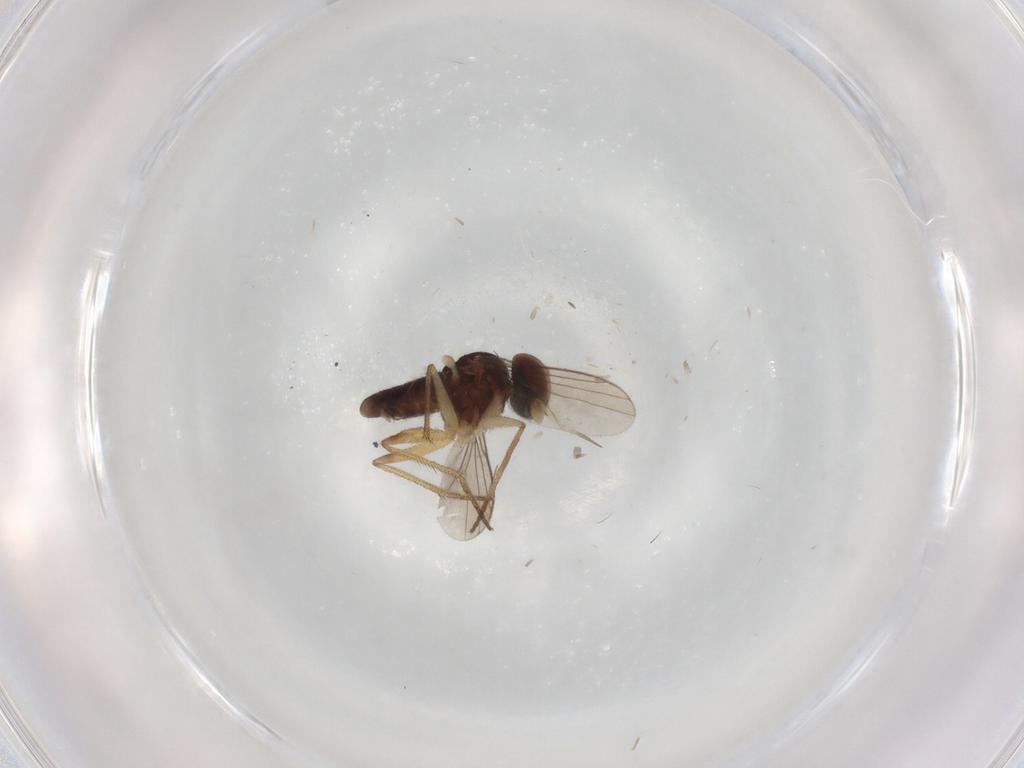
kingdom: Animalia
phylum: Arthropoda
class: Insecta
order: Diptera
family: Dolichopodidae
